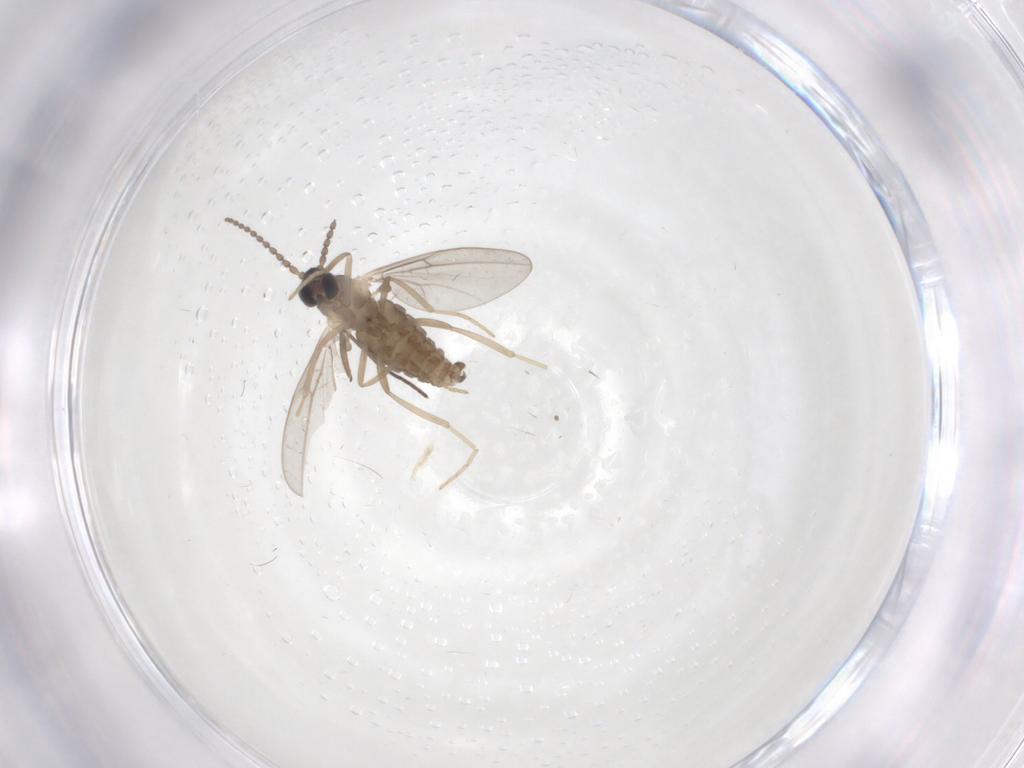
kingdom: Animalia
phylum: Arthropoda
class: Insecta
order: Diptera
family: Cecidomyiidae
